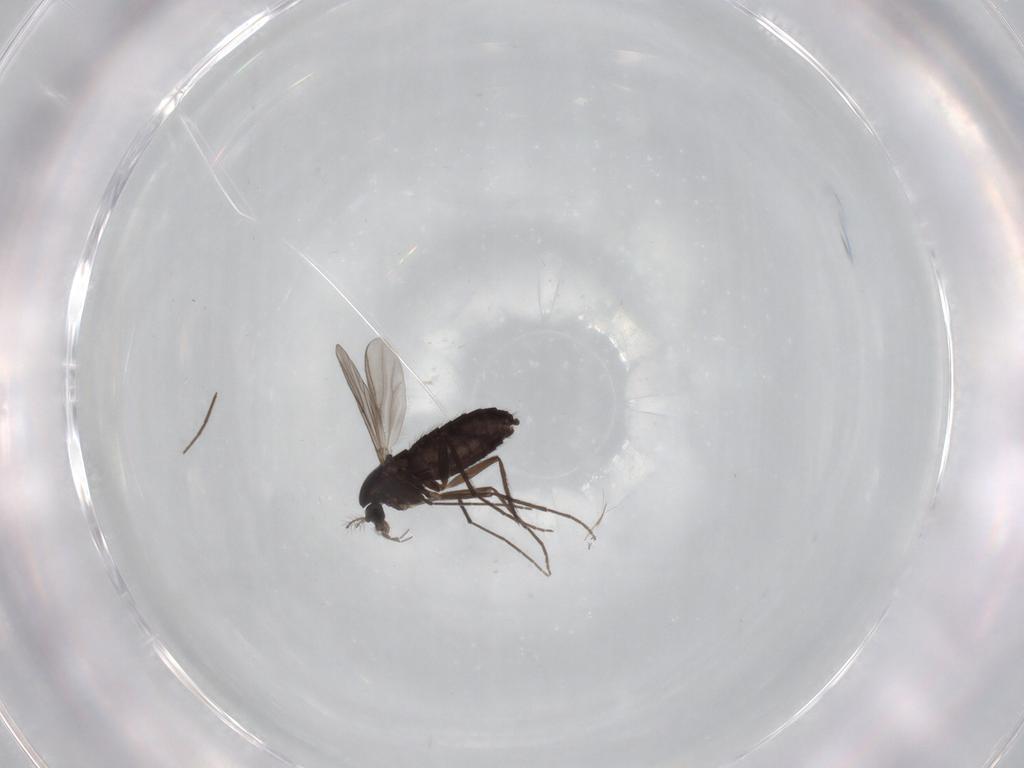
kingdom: Animalia
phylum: Arthropoda
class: Insecta
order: Diptera
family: Chironomidae
